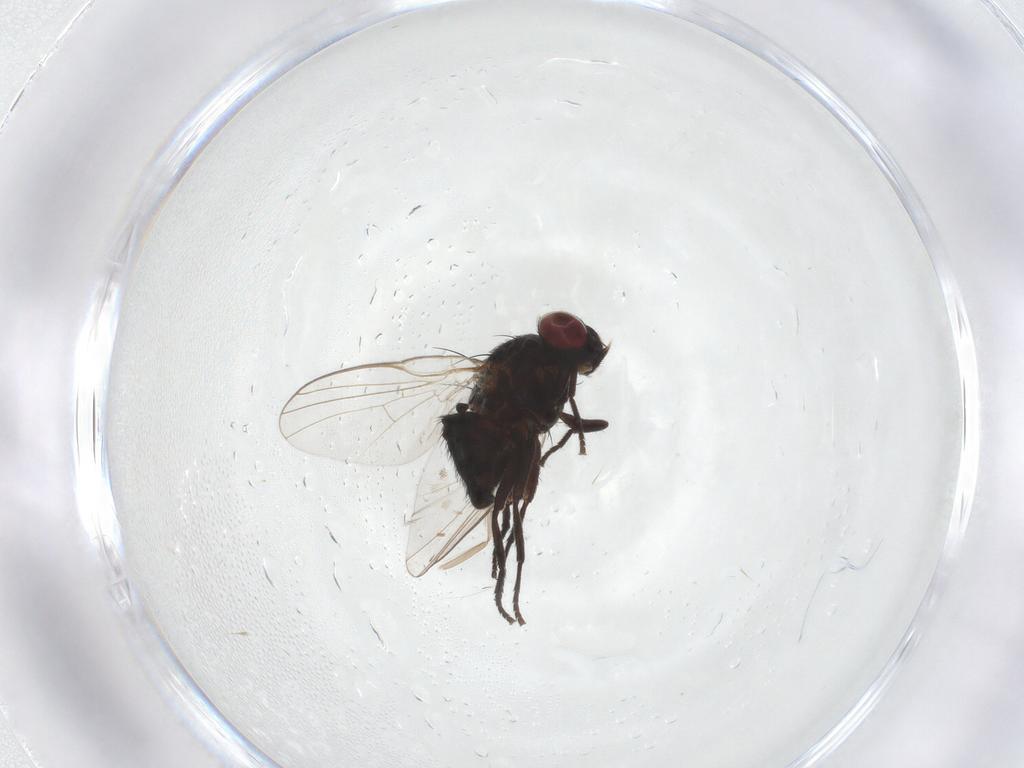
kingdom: Animalia
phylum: Arthropoda
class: Insecta
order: Diptera
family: Agromyzidae
